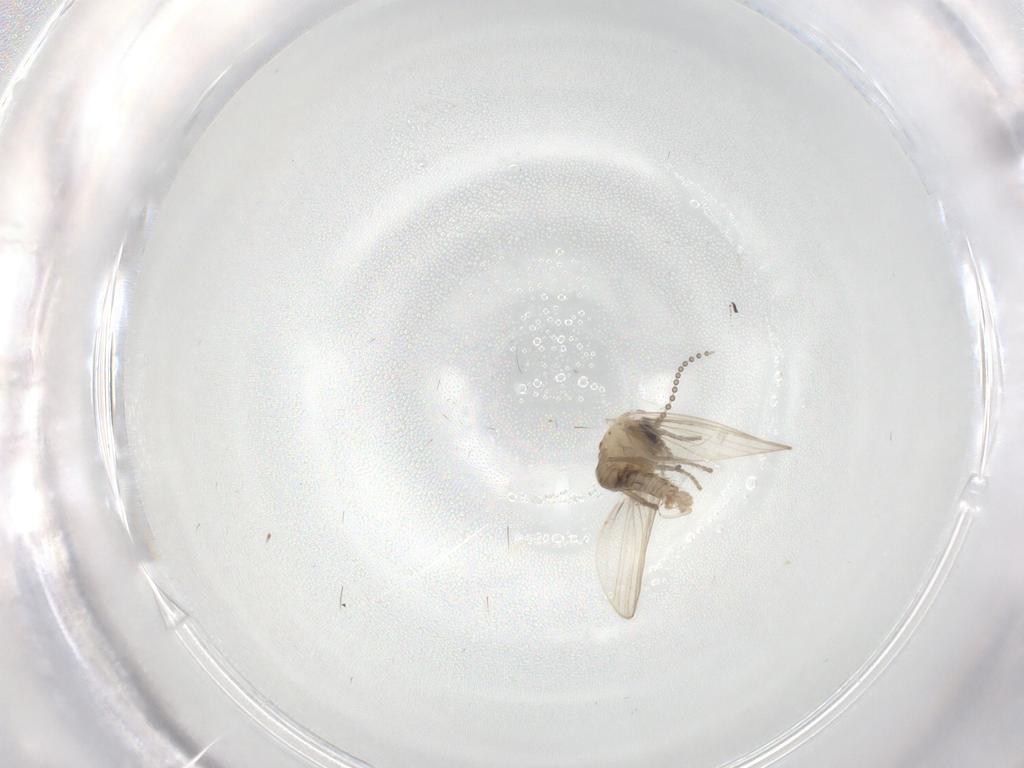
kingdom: Animalia
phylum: Arthropoda
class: Insecta
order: Diptera
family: Psychodidae
